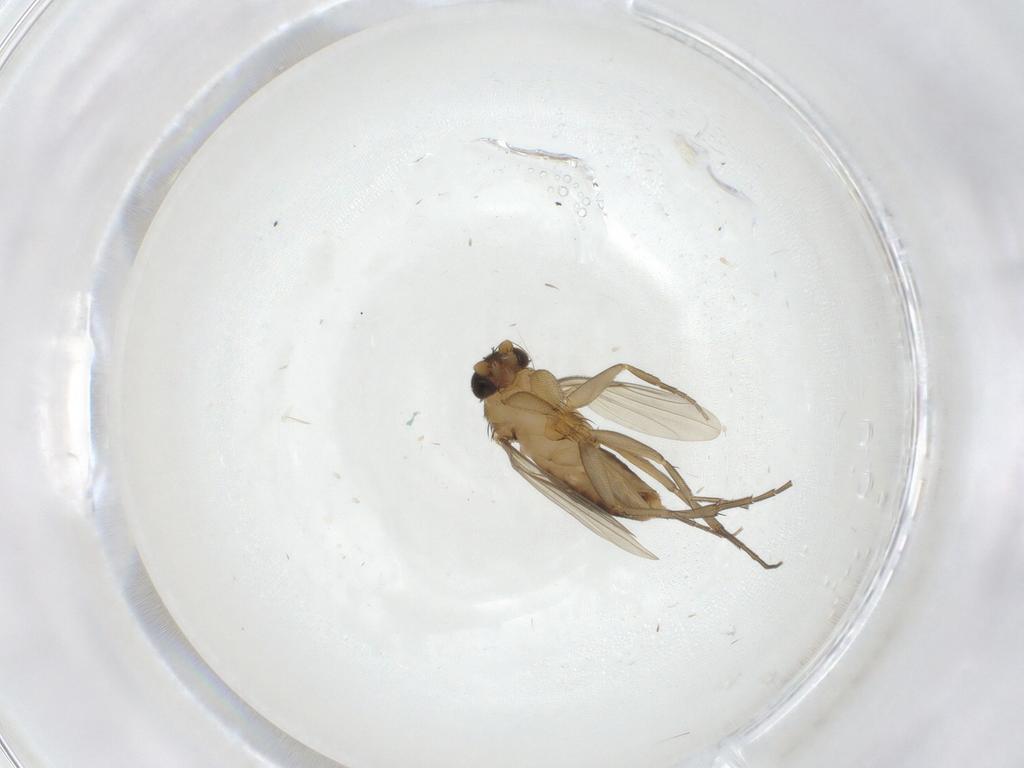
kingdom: Animalia
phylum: Arthropoda
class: Insecta
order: Diptera
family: Phoridae
